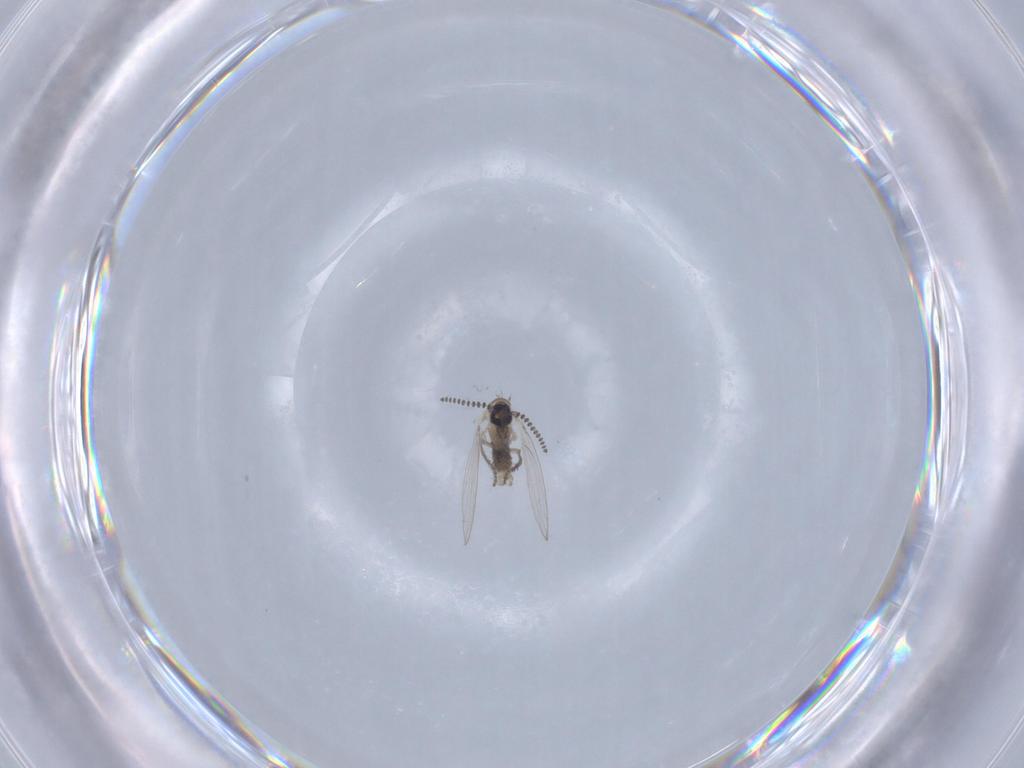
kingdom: Animalia
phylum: Arthropoda
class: Insecta
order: Diptera
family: Psychodidae
